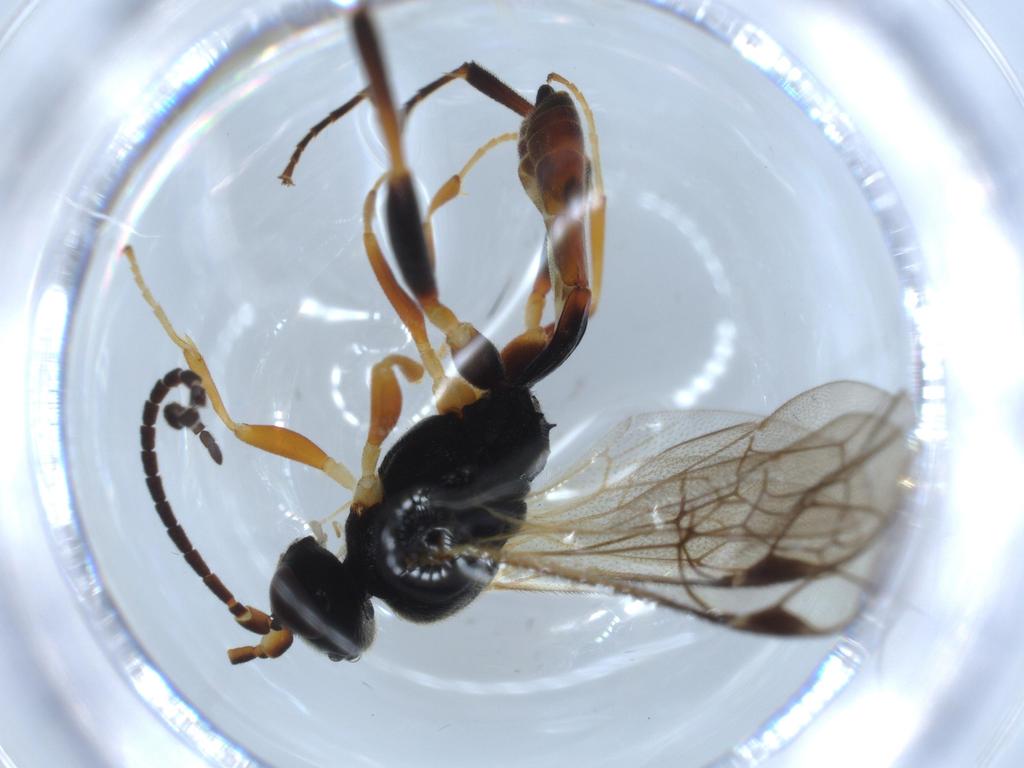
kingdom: Animalia
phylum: Arthropoda
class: Insecta
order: Hymenoptera
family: Ichneumonidae
